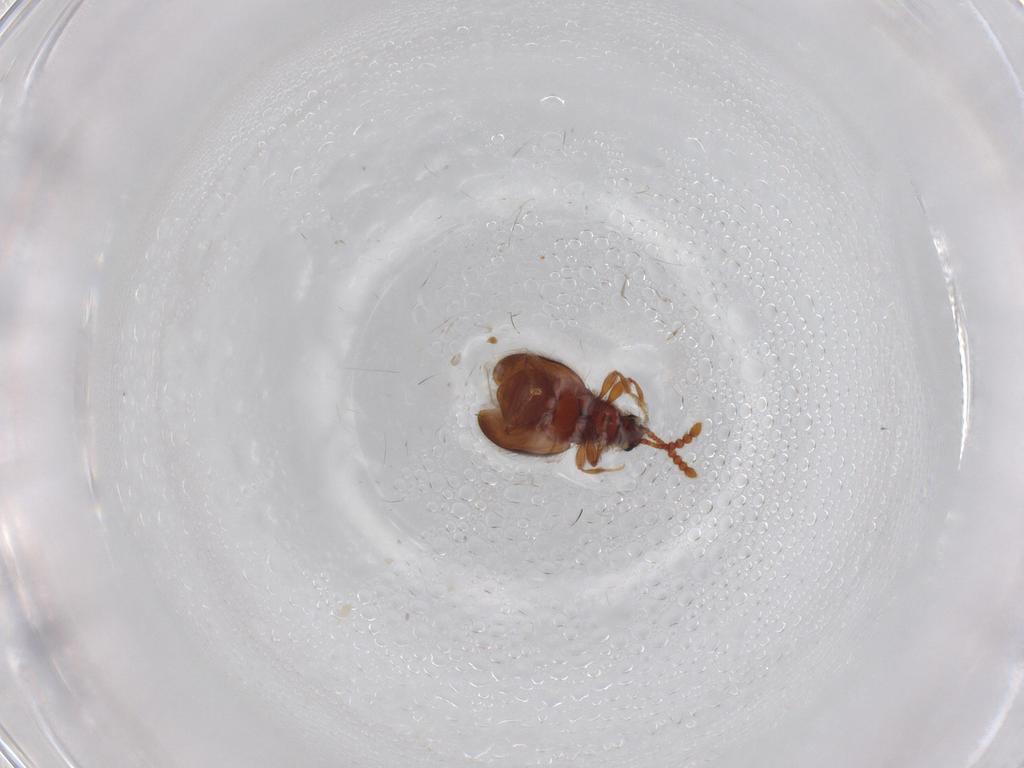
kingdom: Animalia
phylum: Arthropoda
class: Insecta
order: Coleoptera
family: Staphylinidae
